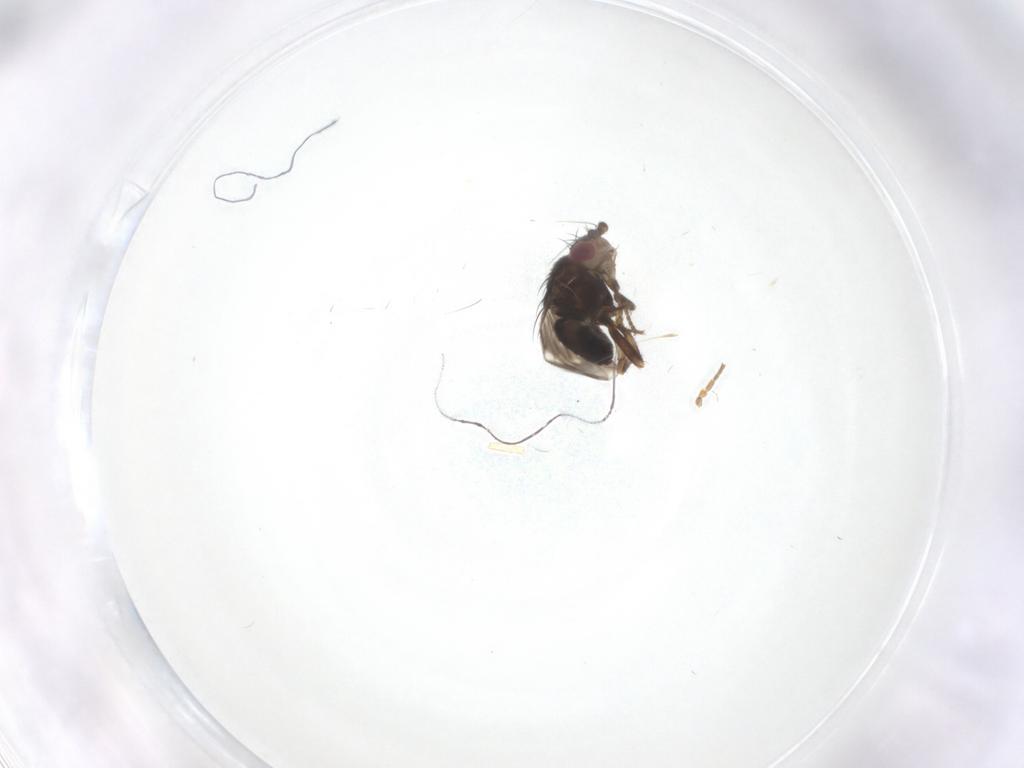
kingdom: Animalia
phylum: Arthropoda
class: Insecta
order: Diptera
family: Sphaeroceridae
